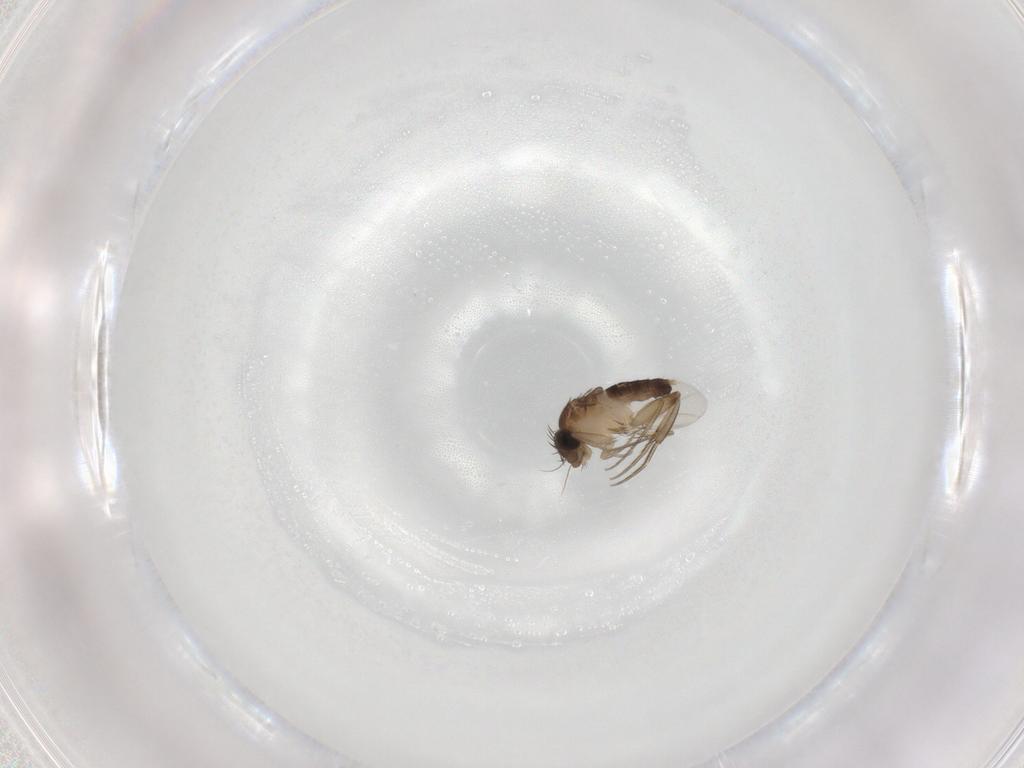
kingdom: Animalia
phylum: Arthropoda
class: Insecta
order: Diptera
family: Phoridae
